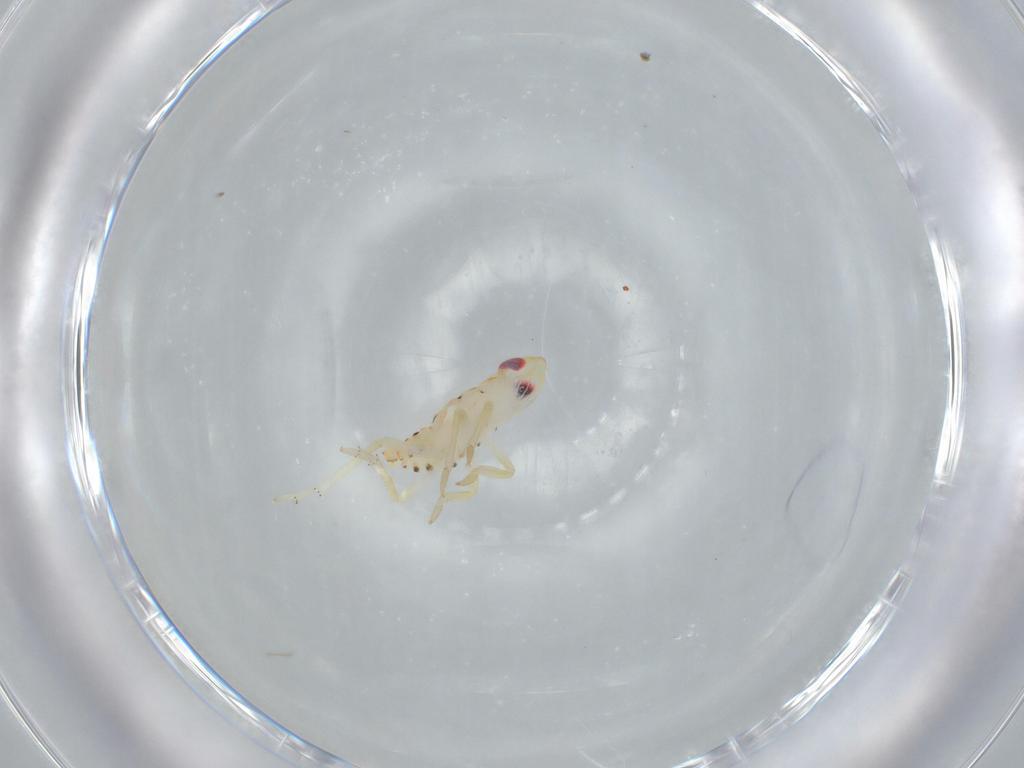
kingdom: Animalia
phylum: Arthropoda
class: Insecta
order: Hemiptera
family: Tropiduchidae
